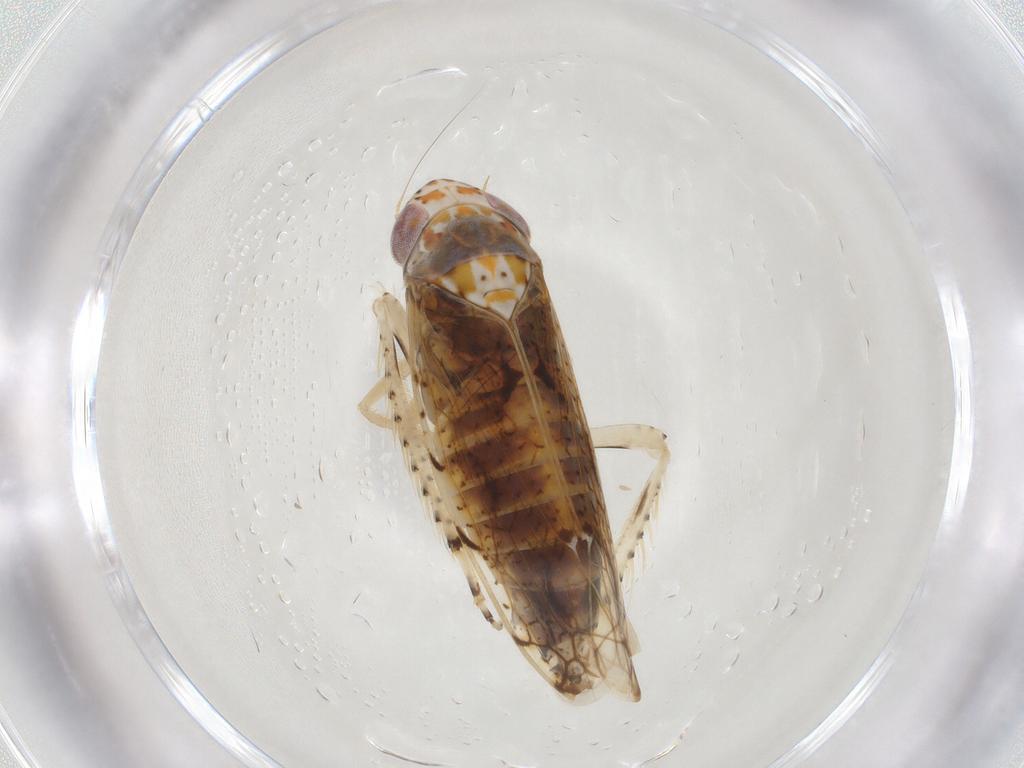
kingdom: Animalia
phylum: Arthropoda
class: Insecta
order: Hemiptera
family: Cicadellidae
